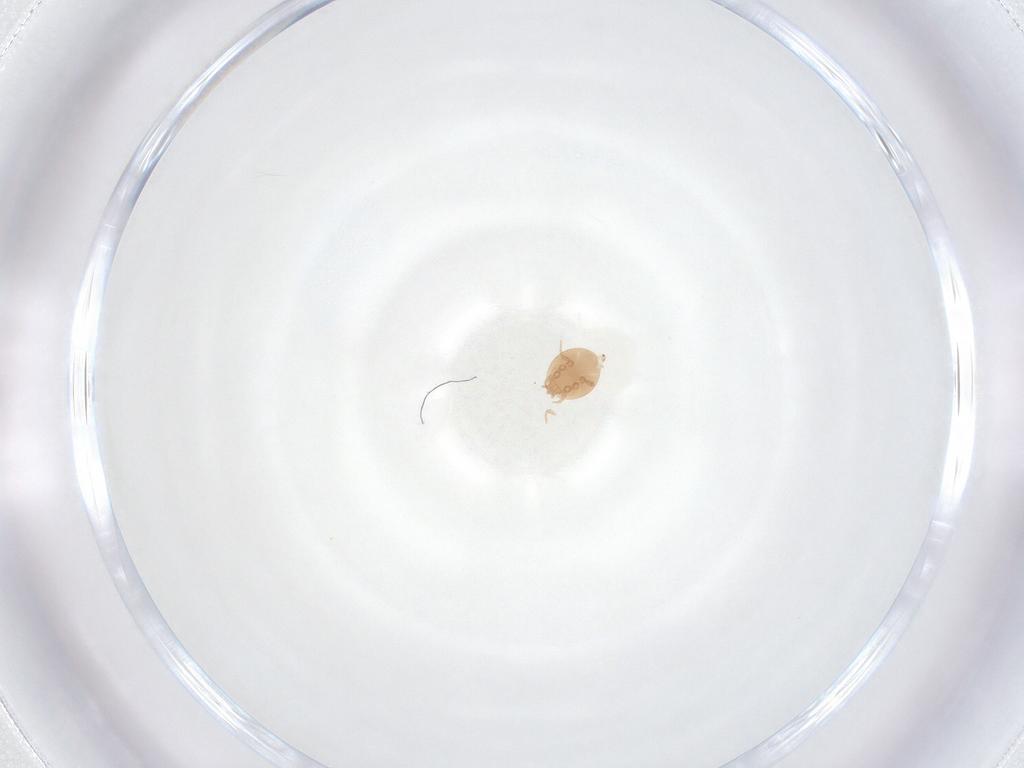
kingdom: Animalia
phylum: Arthropoda
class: Arachnida
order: Mesostigmata
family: Trematuridae
